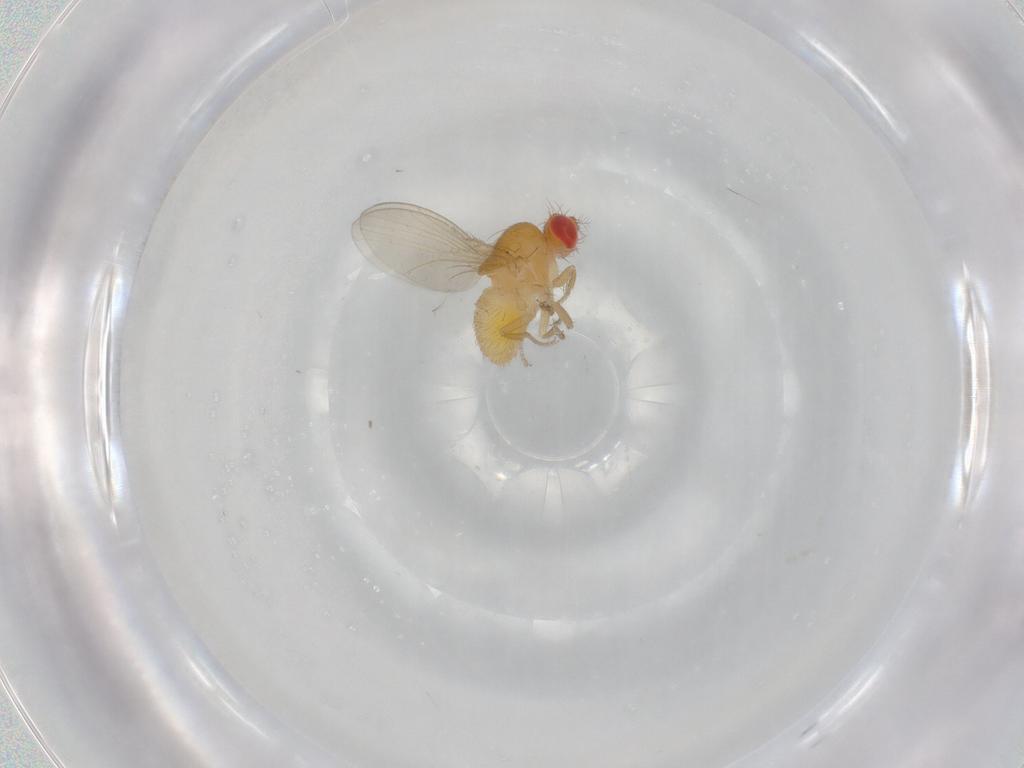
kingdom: Animalia
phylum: Arthropoda
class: Insecta
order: Diptera
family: Drosophilidae
